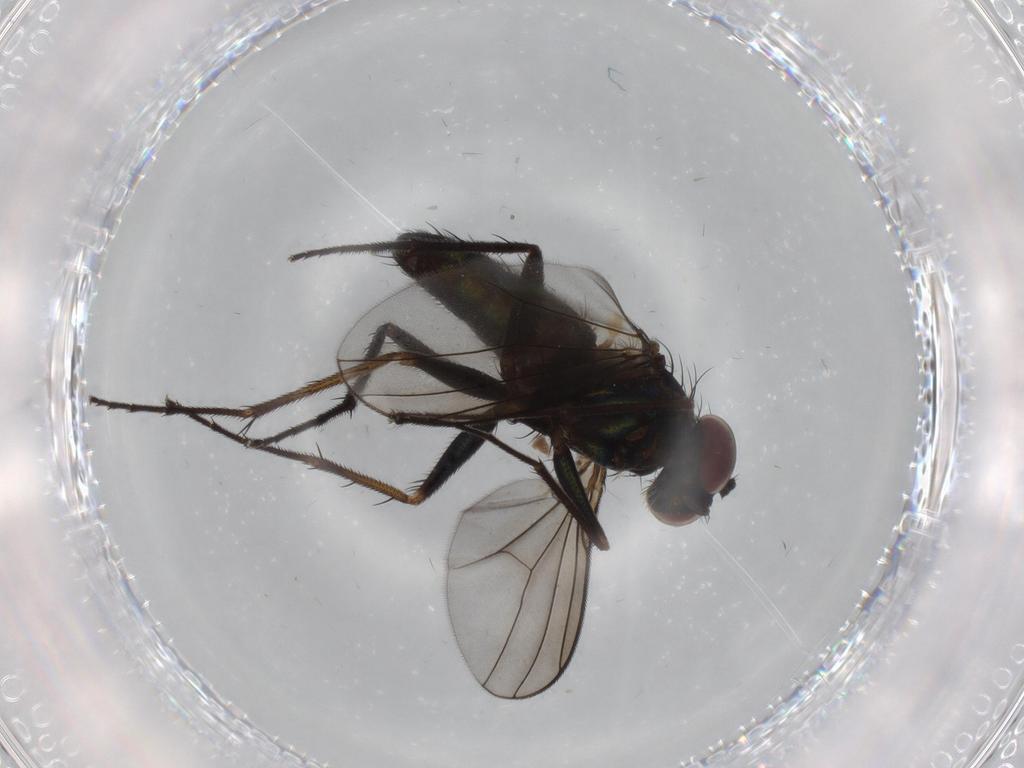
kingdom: Animalia
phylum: Arthropoda
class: Insecta
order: Diptera
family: Dolichopodidae
